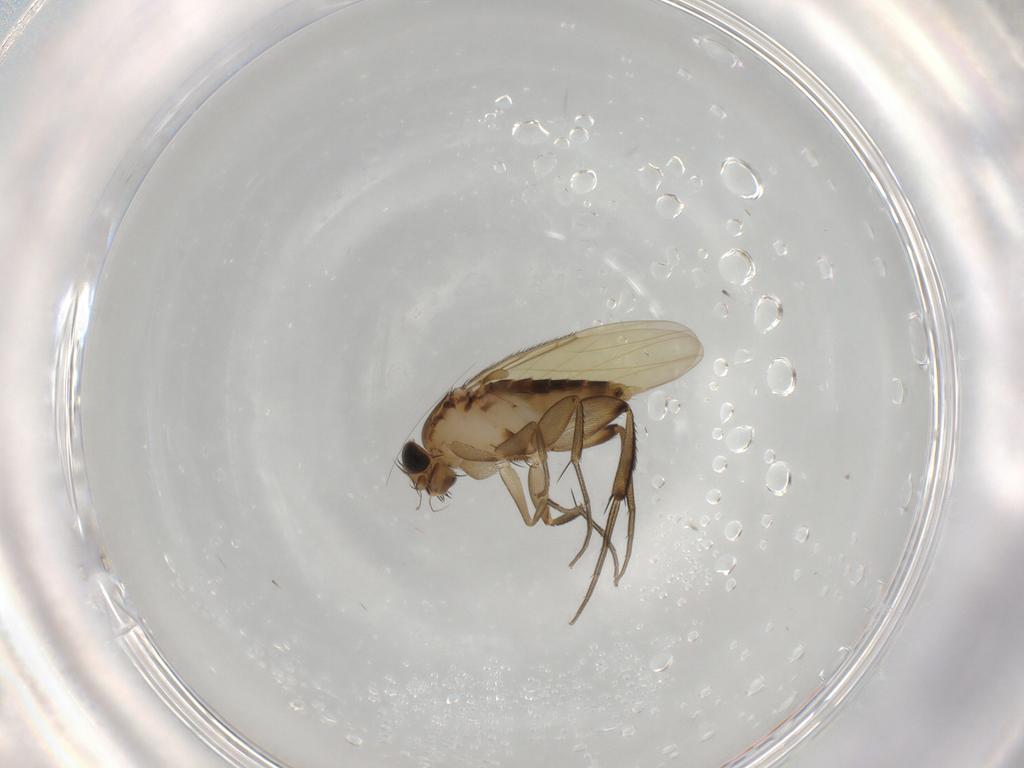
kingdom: Animalia
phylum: Arthropoda
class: Insecta
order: Diptera
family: Phoridae
